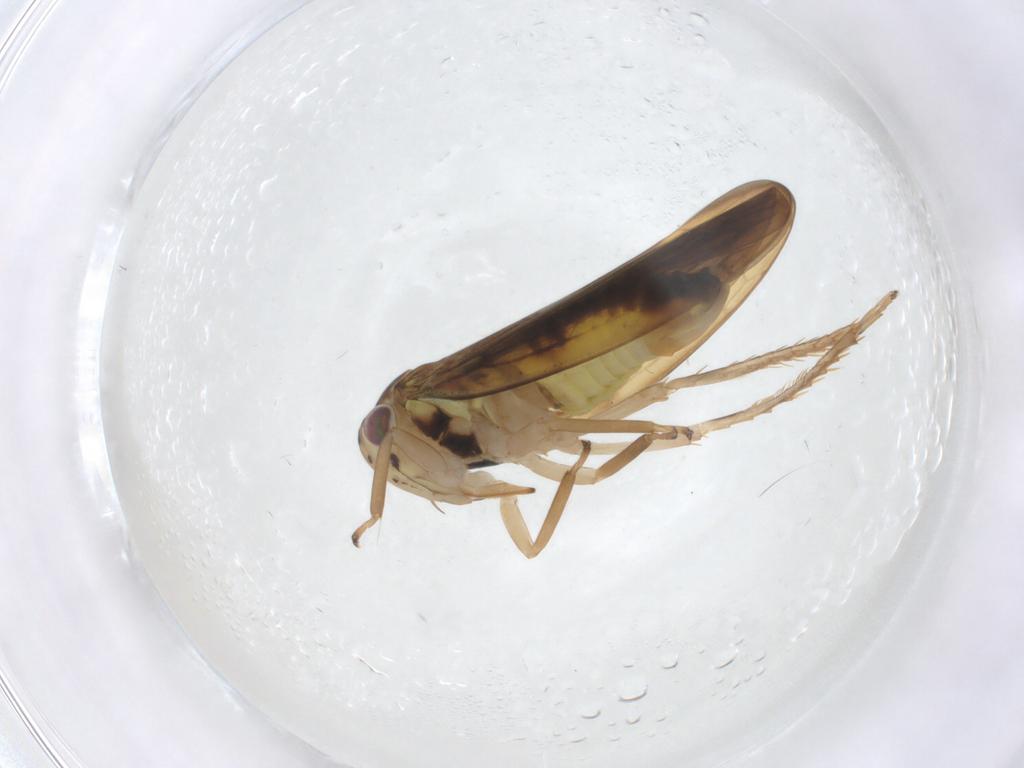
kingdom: Animalia
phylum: Arthropoda
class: Insecta
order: Hemiptera
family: Cicadellidae
